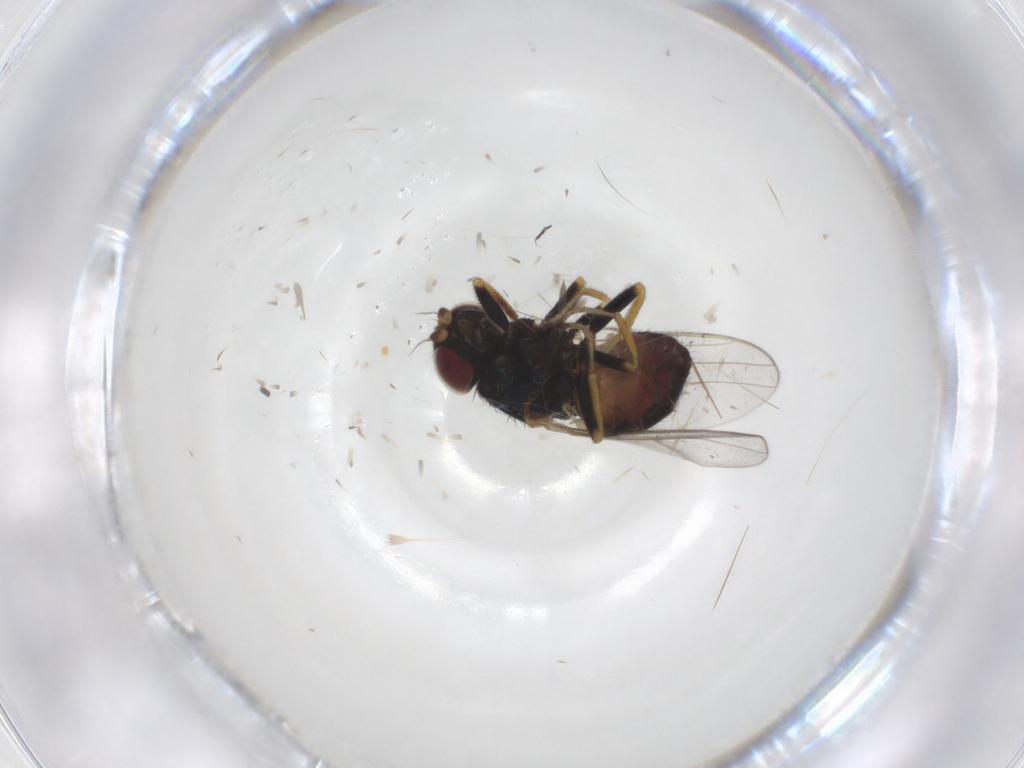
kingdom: Animalia
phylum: Arthropoda
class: Insecta
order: Diptera
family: Chloropidae
